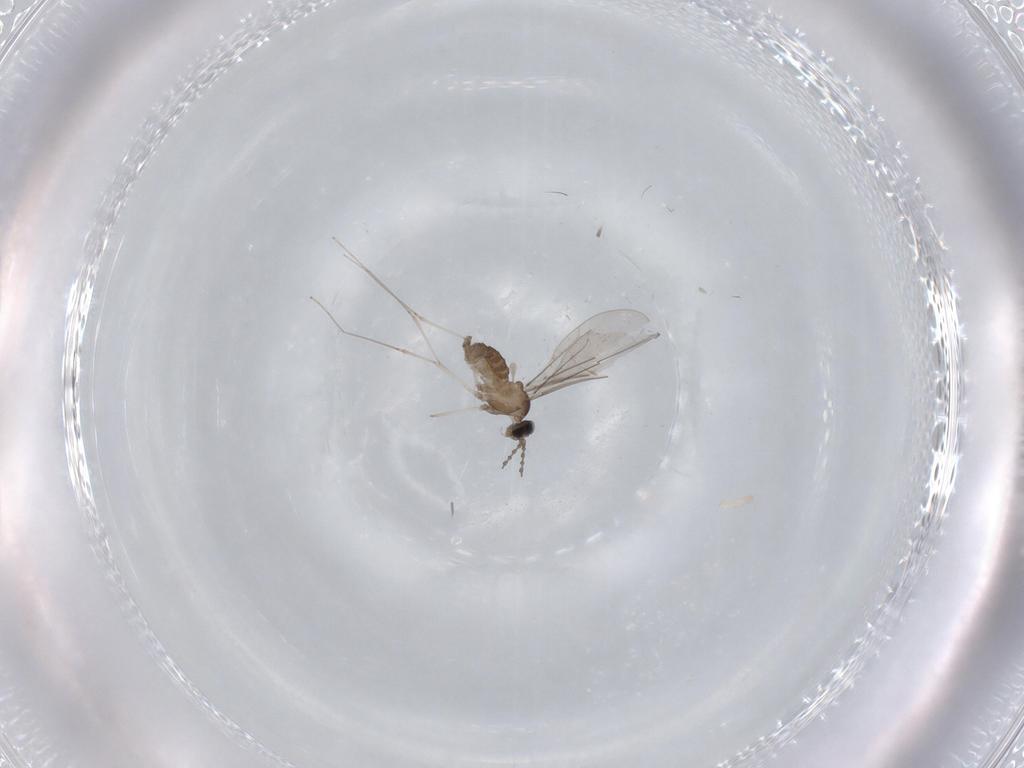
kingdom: Animalia
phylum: Arthropoda
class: Insecta
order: Diptera
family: Cecidomyiidae
